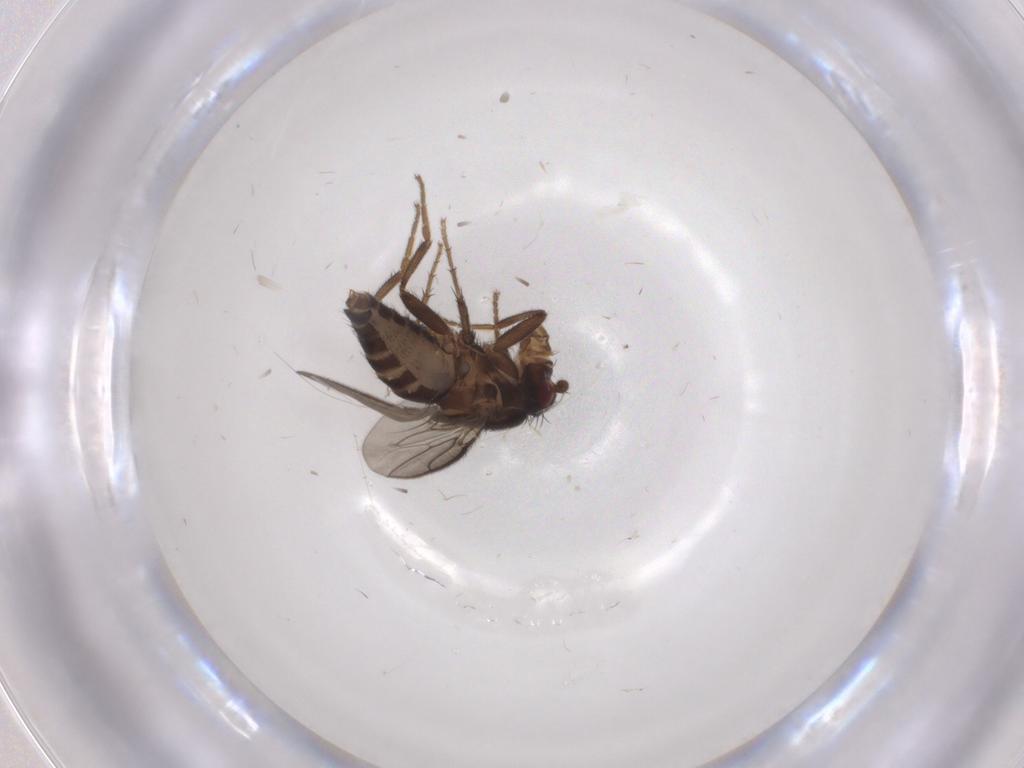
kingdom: Animalia
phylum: Arthropoda
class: Insecta
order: Diptera
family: Sphaeroceridae
